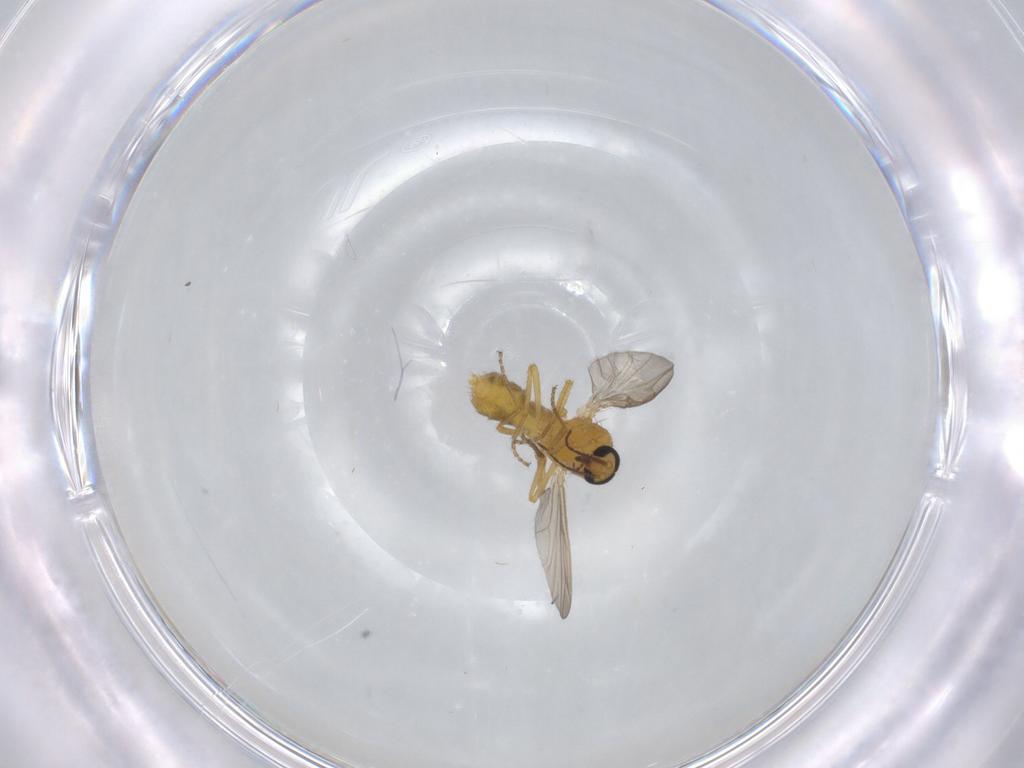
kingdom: Animalia
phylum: Arthropoda
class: Insecta
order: Diptera
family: Ceratopogonidae
